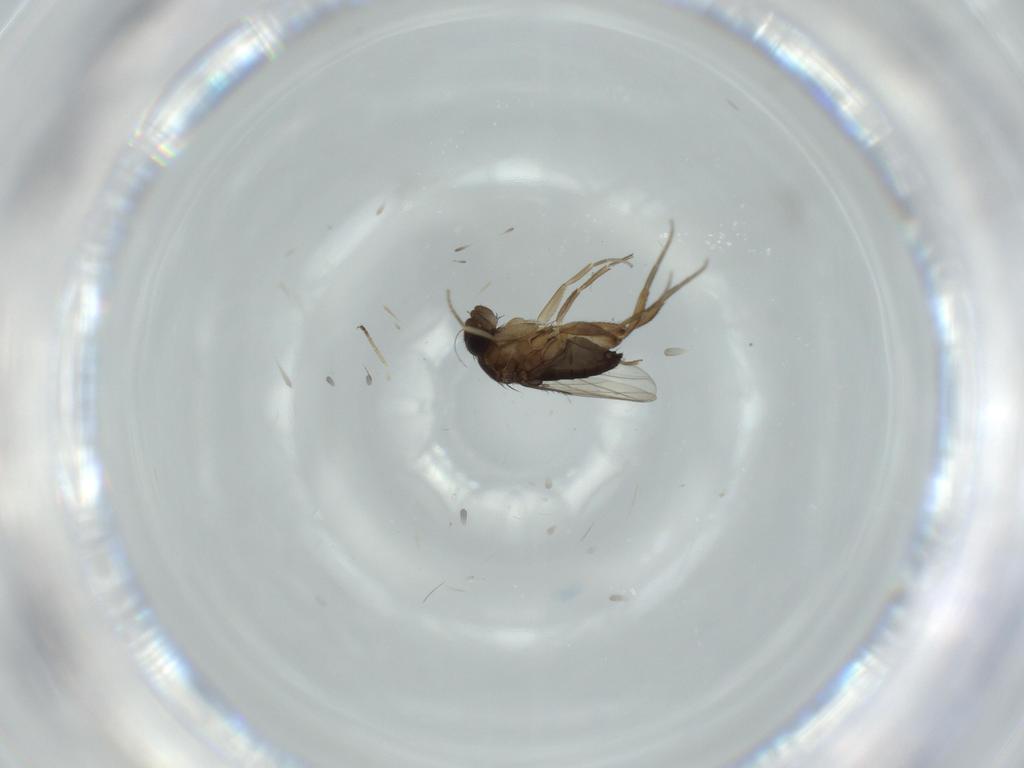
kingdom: Animalia
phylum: Arthropoda
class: Insecta
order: Diptera
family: Phoridae
